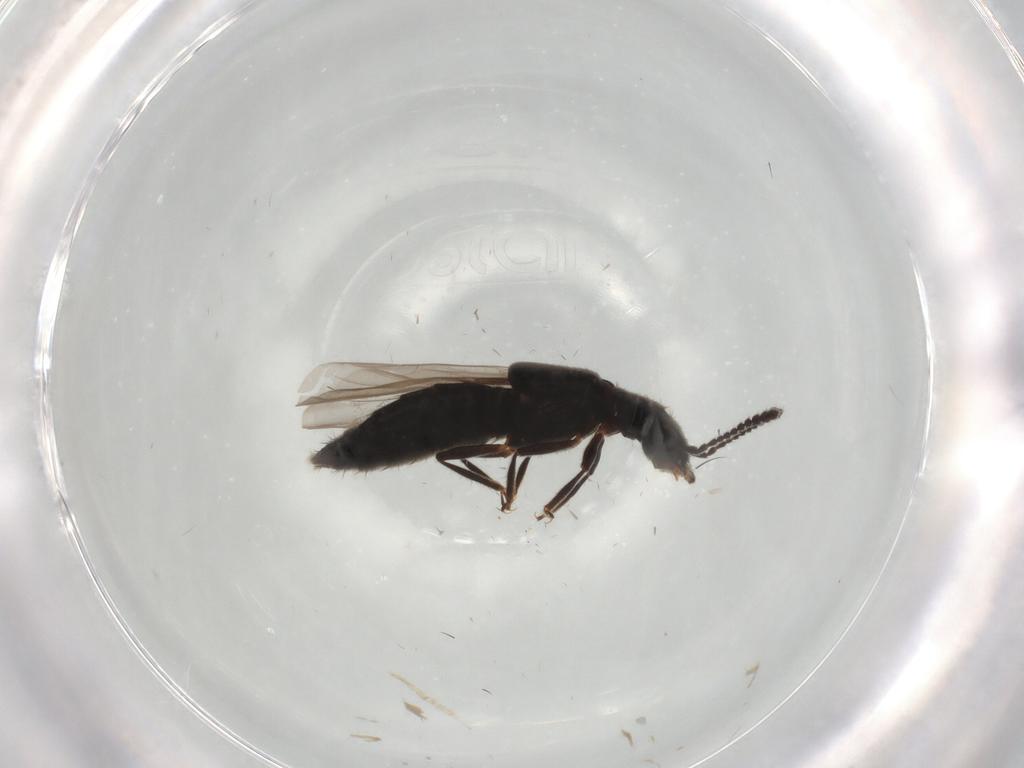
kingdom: Animalia
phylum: Arthropoda
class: Insecta
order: Coleoptera
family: Staphylinidae
